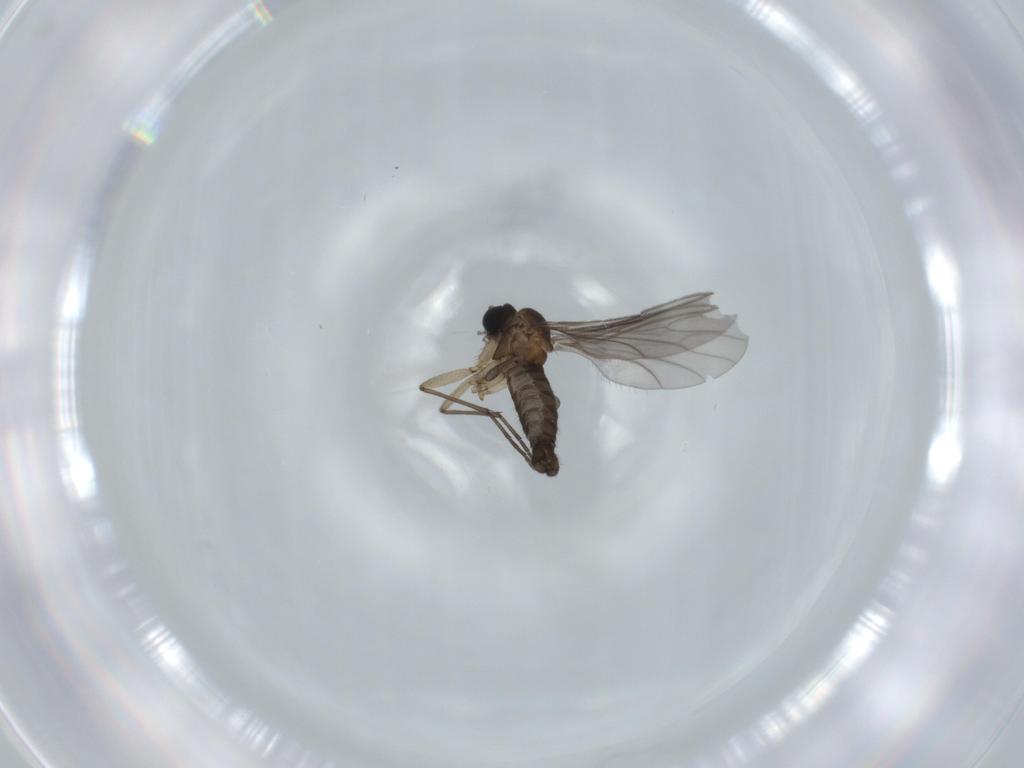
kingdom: Animalia
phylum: Arthropoda
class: Insecta
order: Diptera
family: Sciaridae
